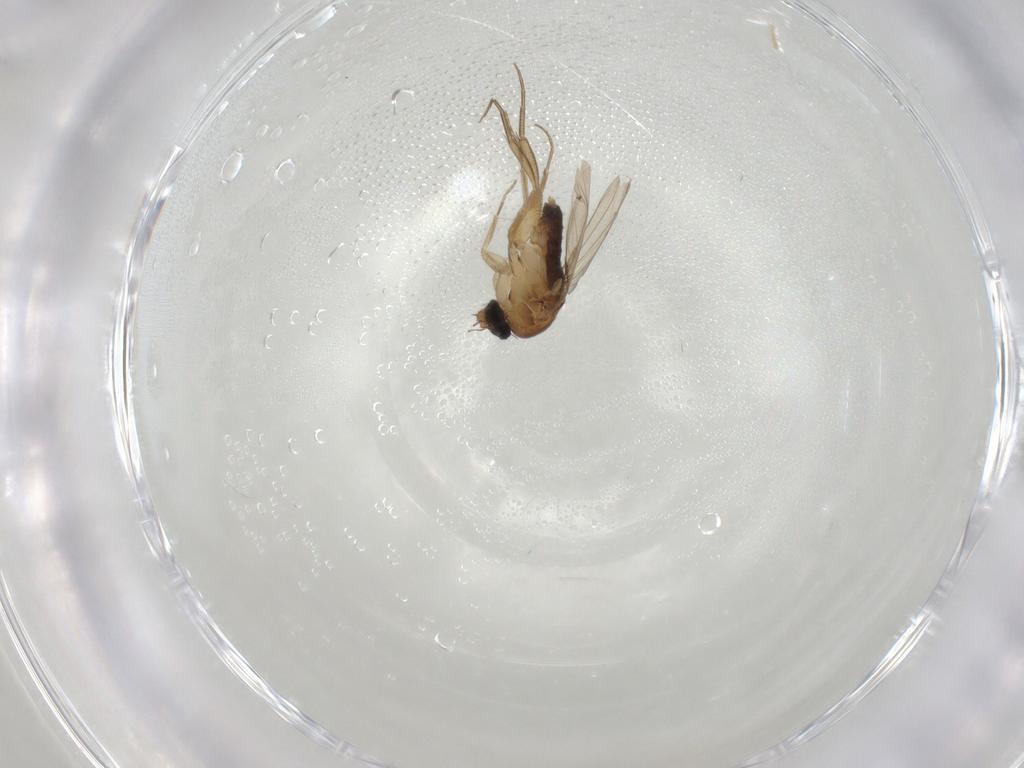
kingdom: Animalia
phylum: Arthropoda
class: Insecta
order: Diptera
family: Phoridae
